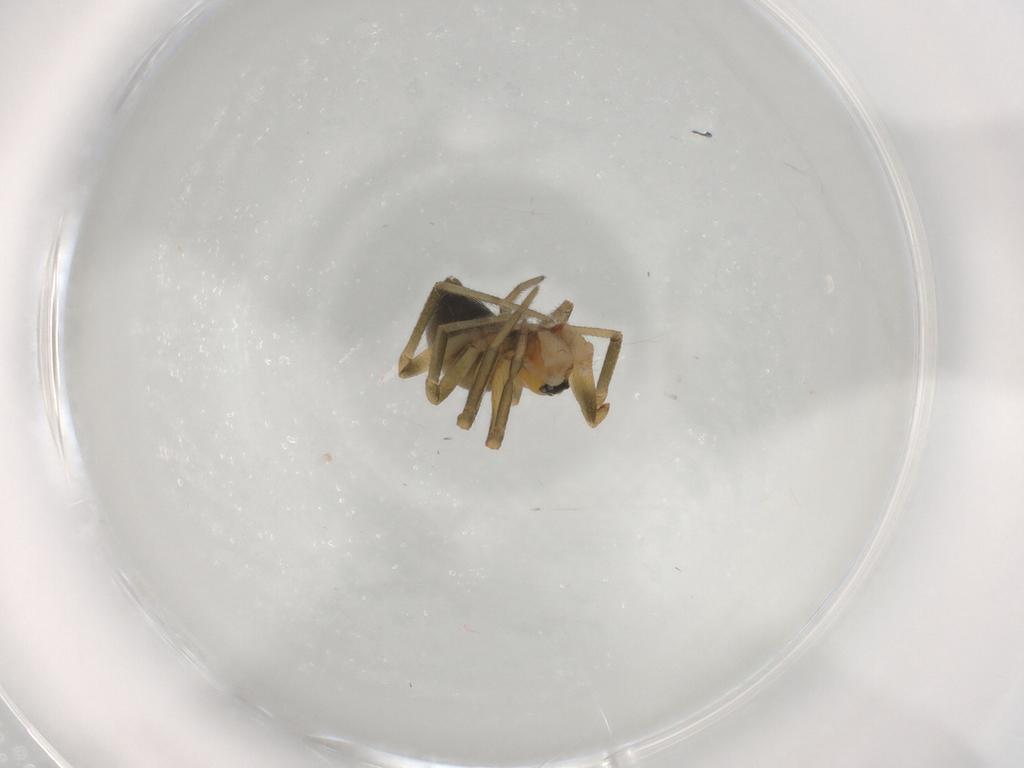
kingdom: Animalia
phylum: Arthropoda
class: Arachnida
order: Araneae
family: Linyphiidae
